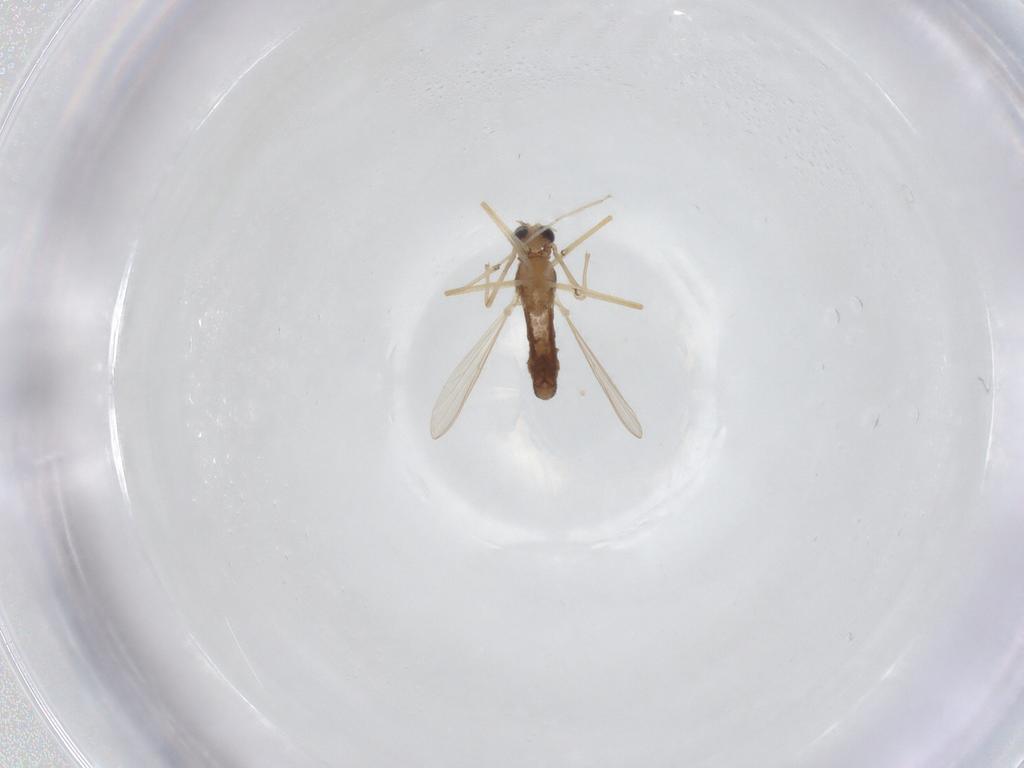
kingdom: Animalia
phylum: Arthropoda
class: Insecta
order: Diptera
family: Chironomidae
